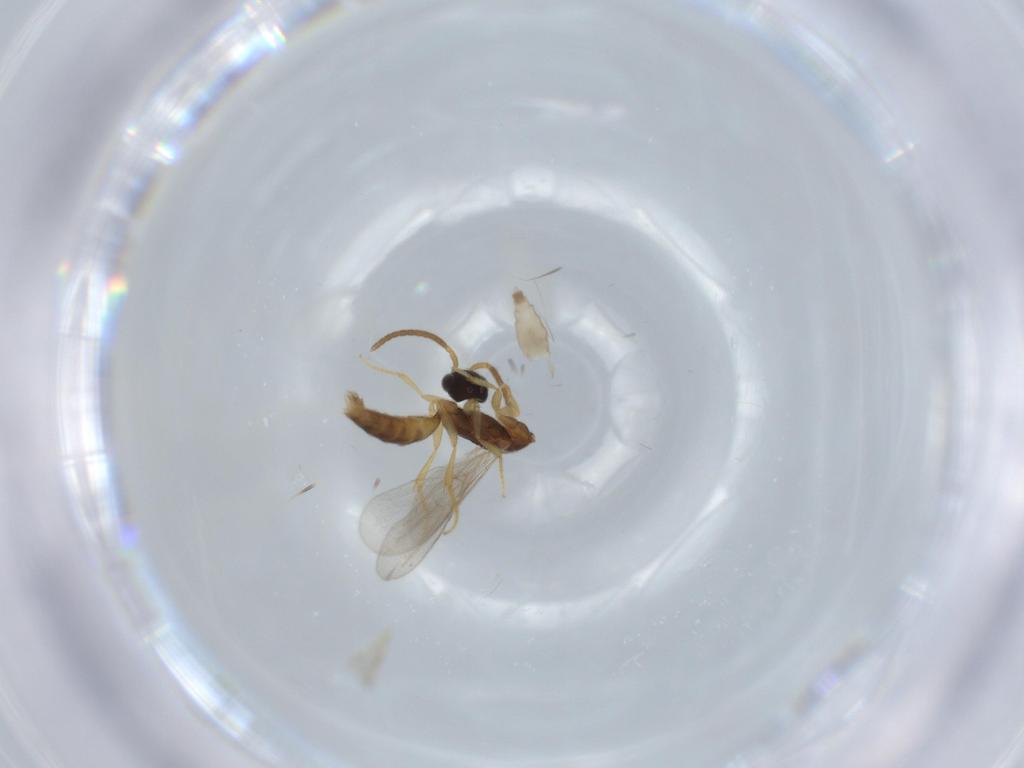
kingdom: Animalia
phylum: Arthropoda
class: Insecta
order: Hymenoptera
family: Bethylidae
